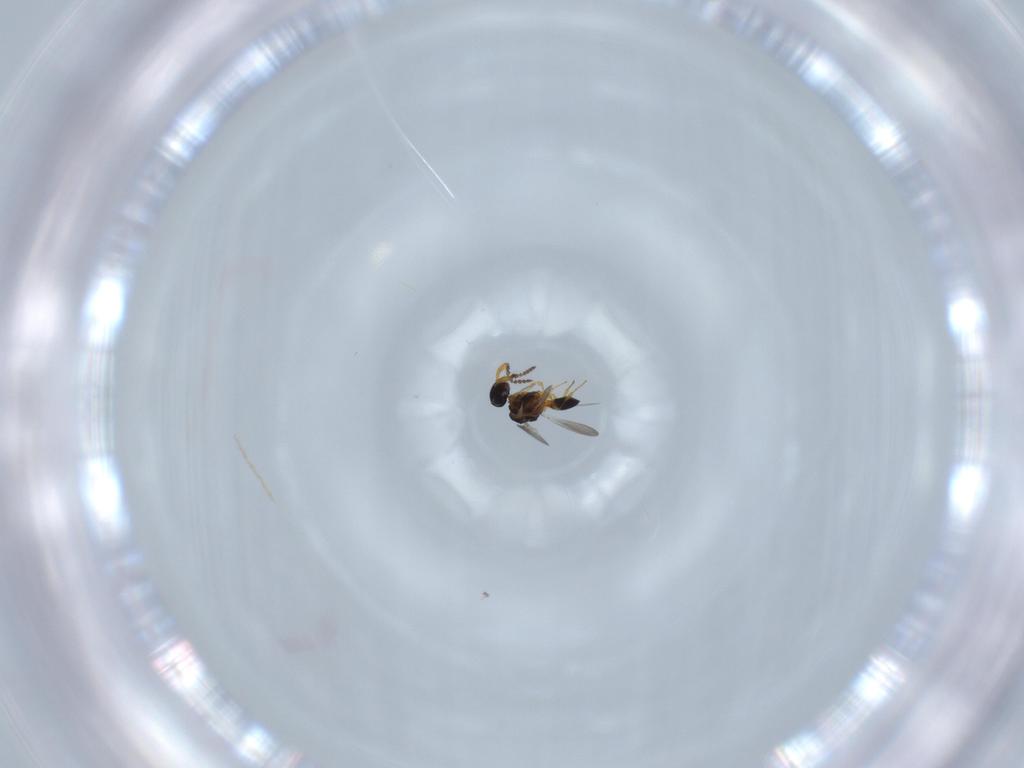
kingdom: Animalia
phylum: Arthropoda
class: Insecta
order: Hymenoptera
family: Platygastridae
